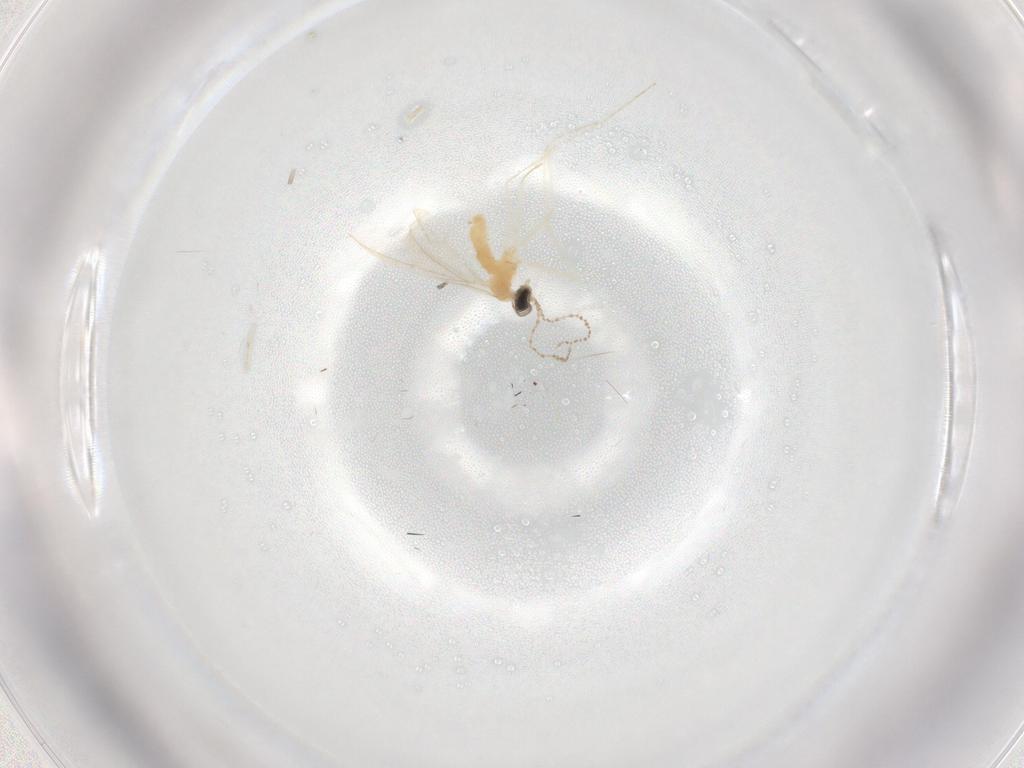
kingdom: Animalia
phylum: Arthropoda
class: Insecta
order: Diptera
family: Cecidomyiidae
